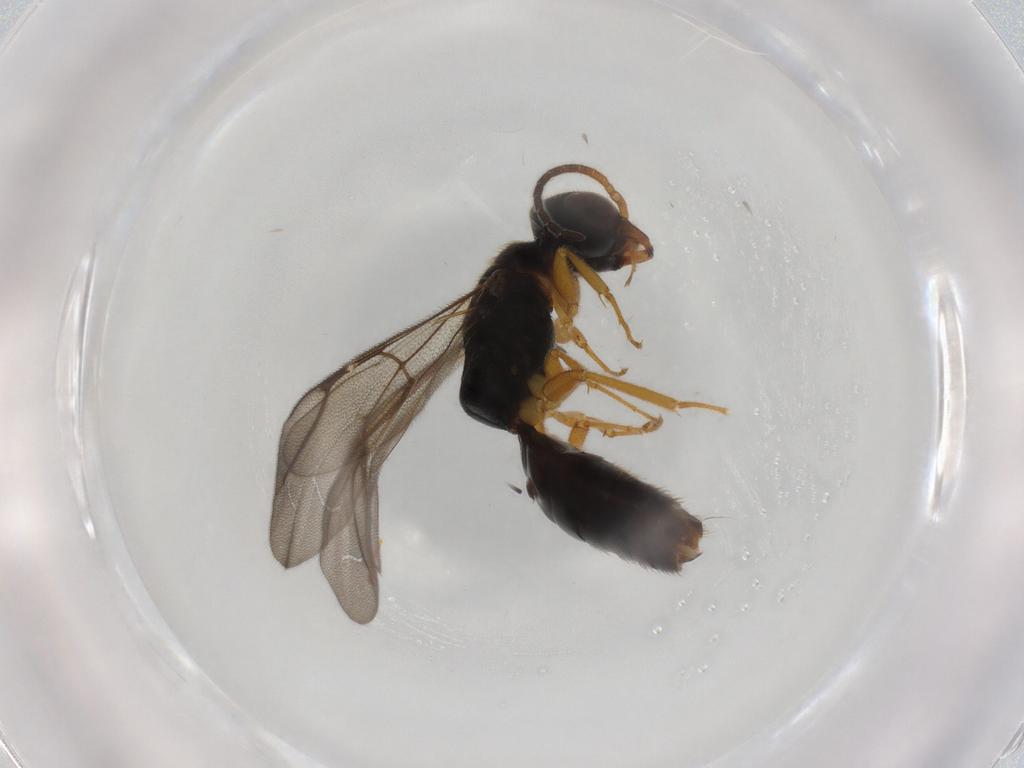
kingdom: Animalia
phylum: Arthropoda
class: Insecta
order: Hymenoptera
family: Bethylidae
